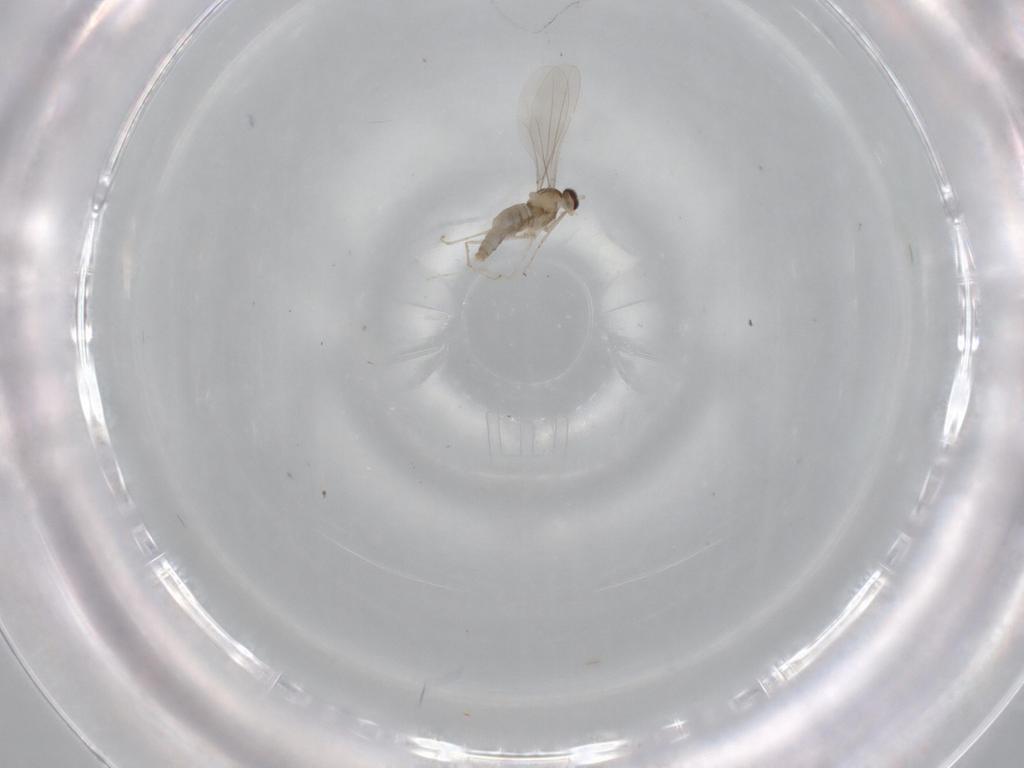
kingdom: Animalia
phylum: Arthropoda
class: Insecta
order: Diptera
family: Cecidomyiidae
